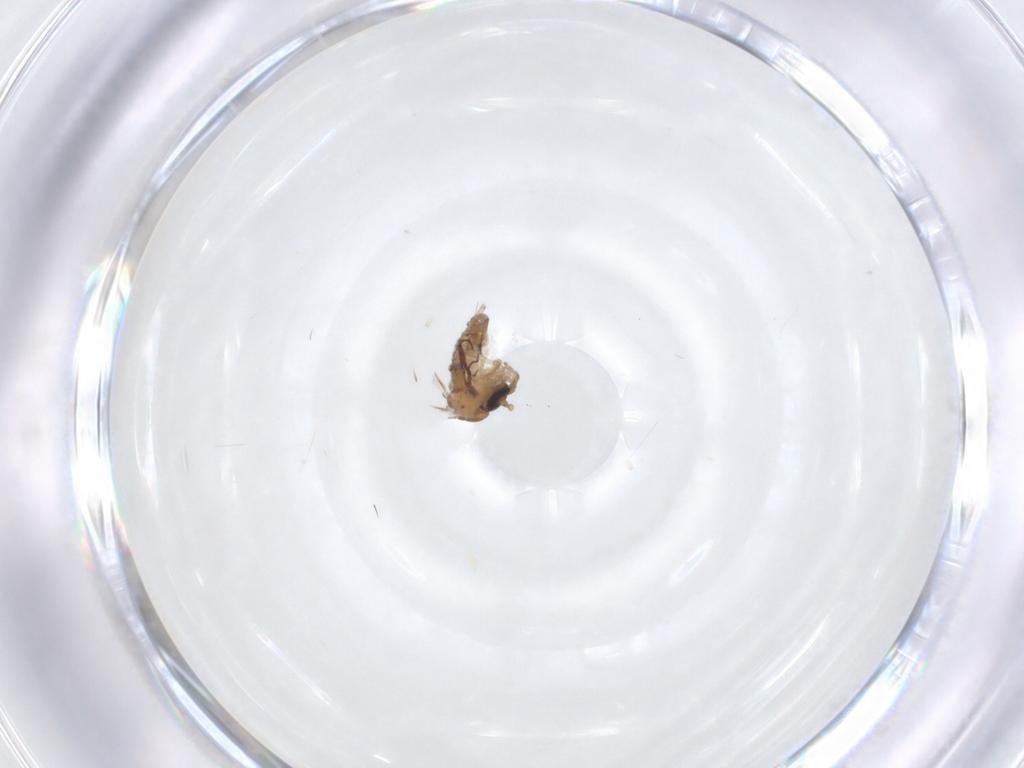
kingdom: Animalia
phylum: Arthropoda
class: Insecta
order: Diptera
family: Psychodidae
